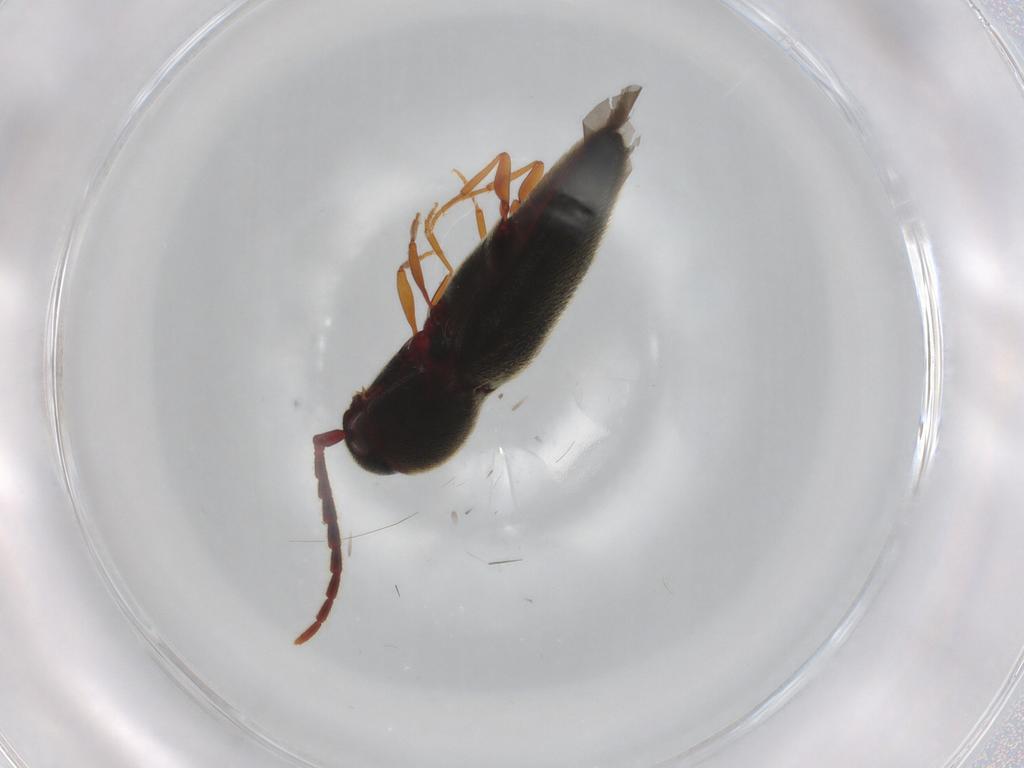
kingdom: Animalia
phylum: Arthropoda
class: Insecta
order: Coleoptera
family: Eucnemidae
